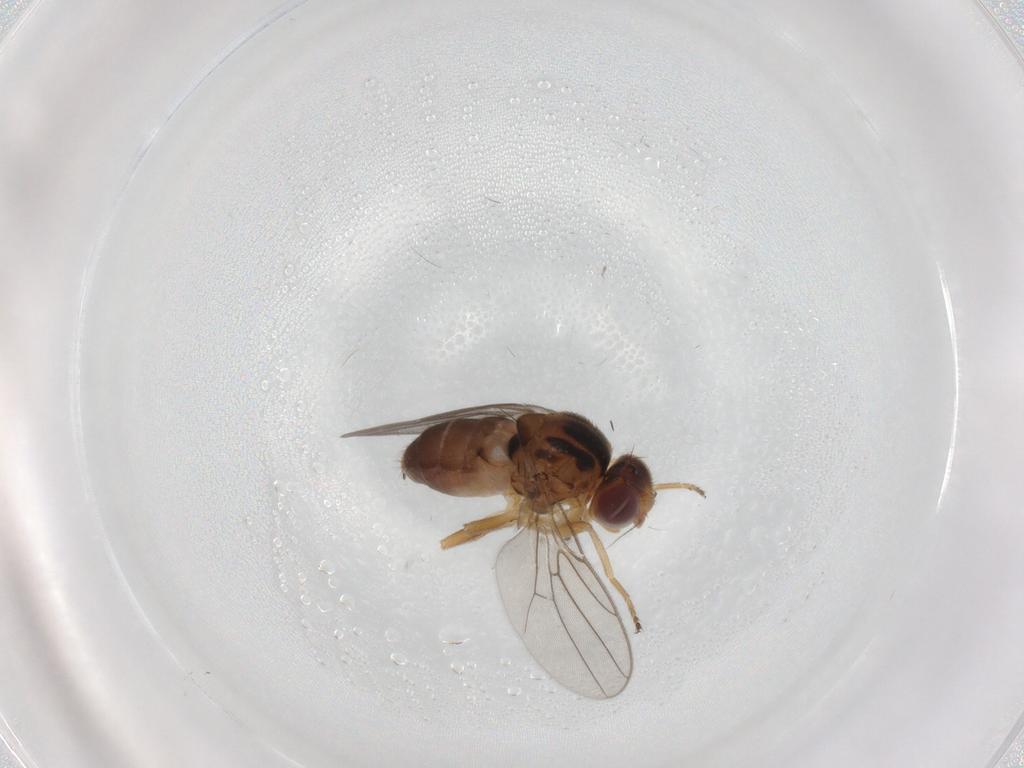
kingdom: Animalia
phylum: Arthropoda
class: Insecta
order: Diptera
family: Chloropidae
